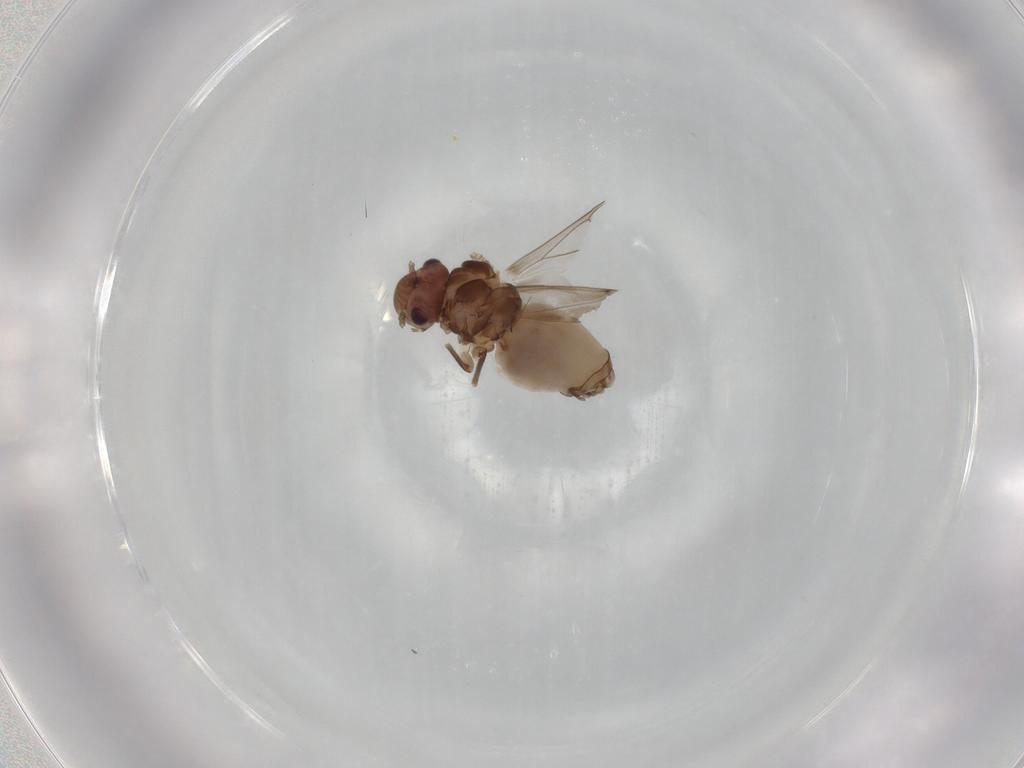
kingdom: Animalia
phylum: Arthropoda
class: Insecta
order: Psocodea
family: Peripsocidae
